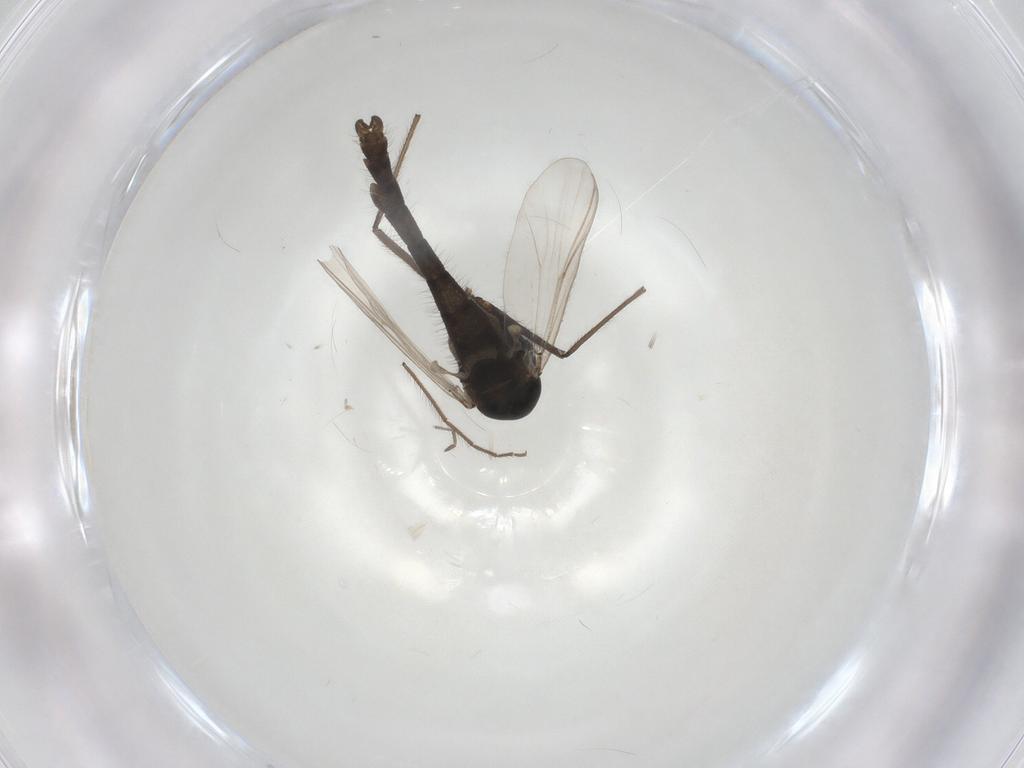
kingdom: Animalia
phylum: Arthropoda
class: Insecta
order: Diptera
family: Chironomidae
